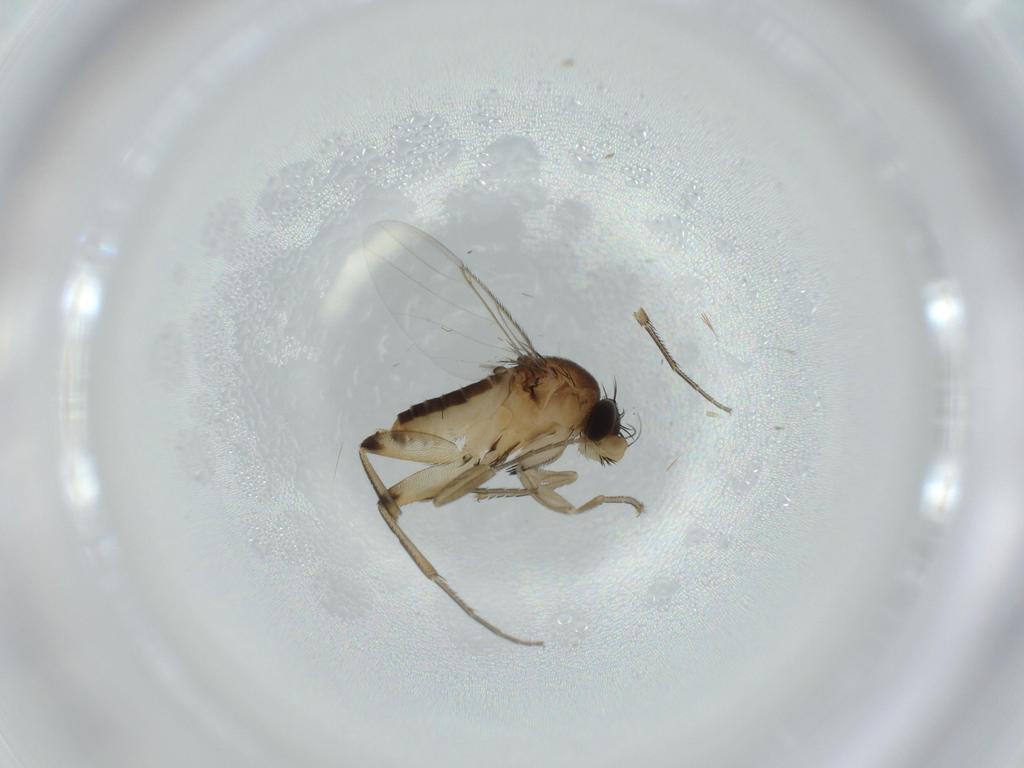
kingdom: Animalia
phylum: Arthropoda
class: Insecta
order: Diptera
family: Phoridae
